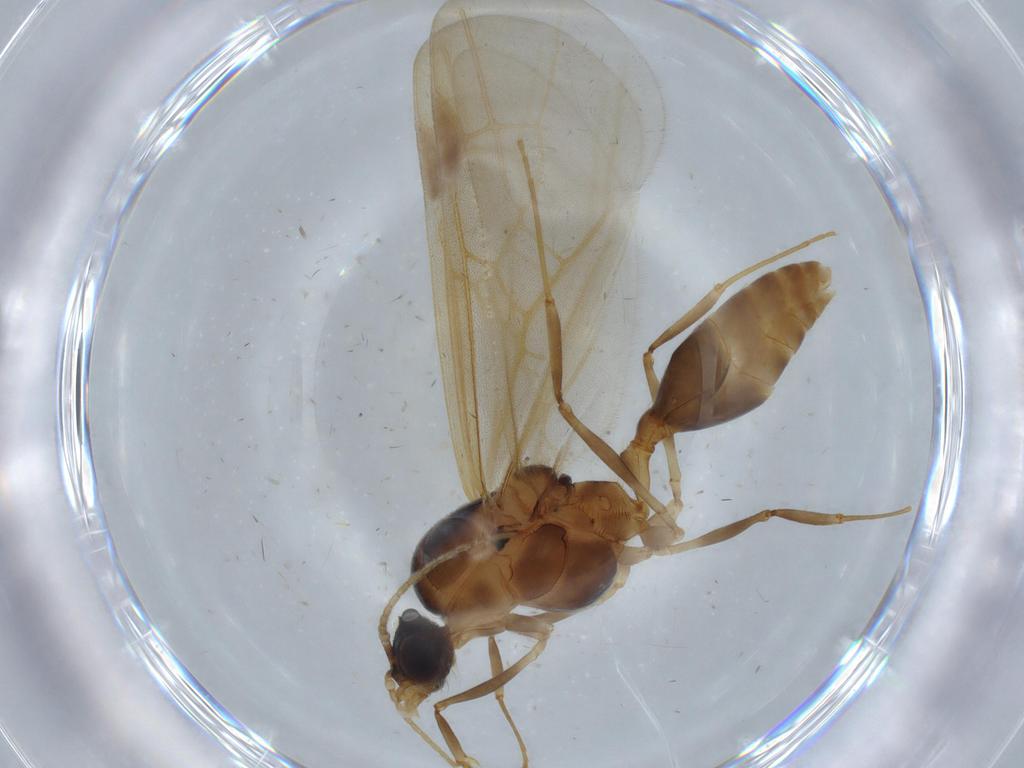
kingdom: Animalia
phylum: Arthropoda
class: Insecta
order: Hymenoptera
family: Formicidae
